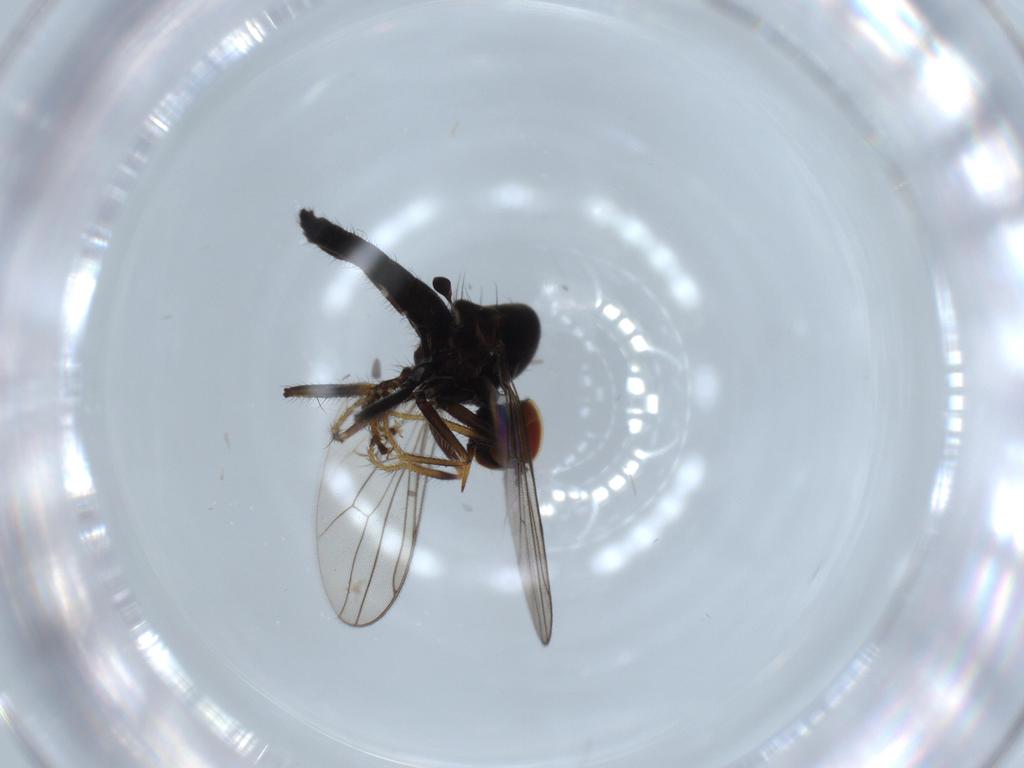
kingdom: Animalia
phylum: Arthropoda
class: Insecta
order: Diptera
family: Hybotidae
